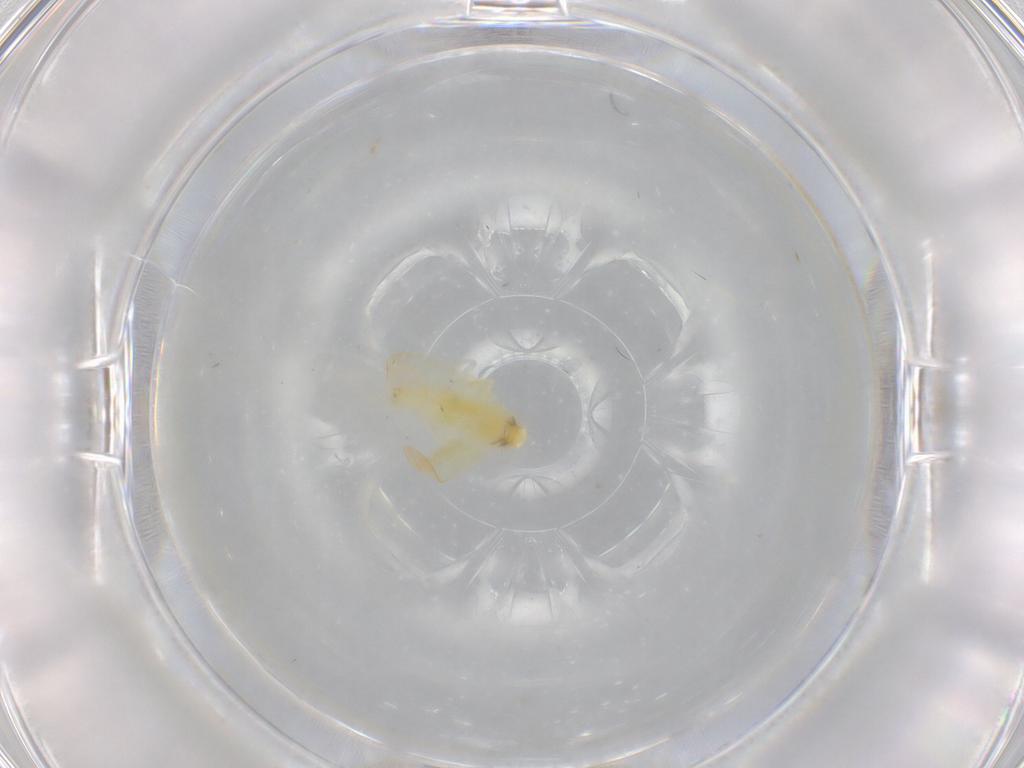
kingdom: Animalia
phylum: Arthropoda
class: Insecta
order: Hemiptera
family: Cicadellidae
